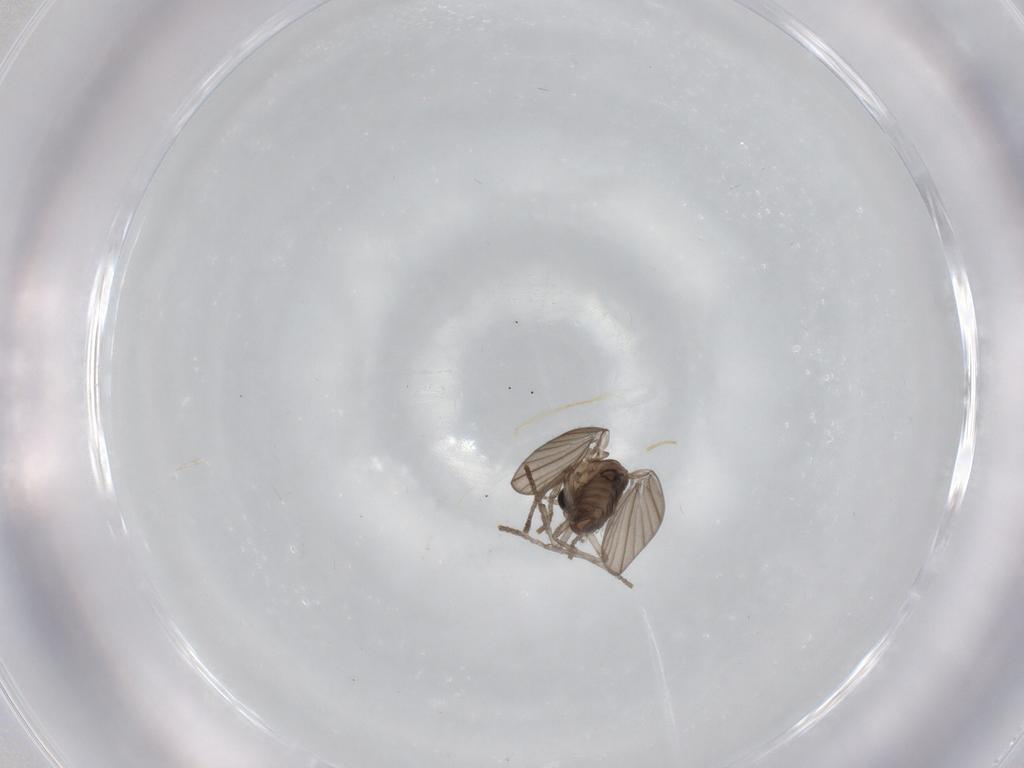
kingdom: Animalia
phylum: Arthropoda
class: Insecta
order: Diptera
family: Psychodidae
